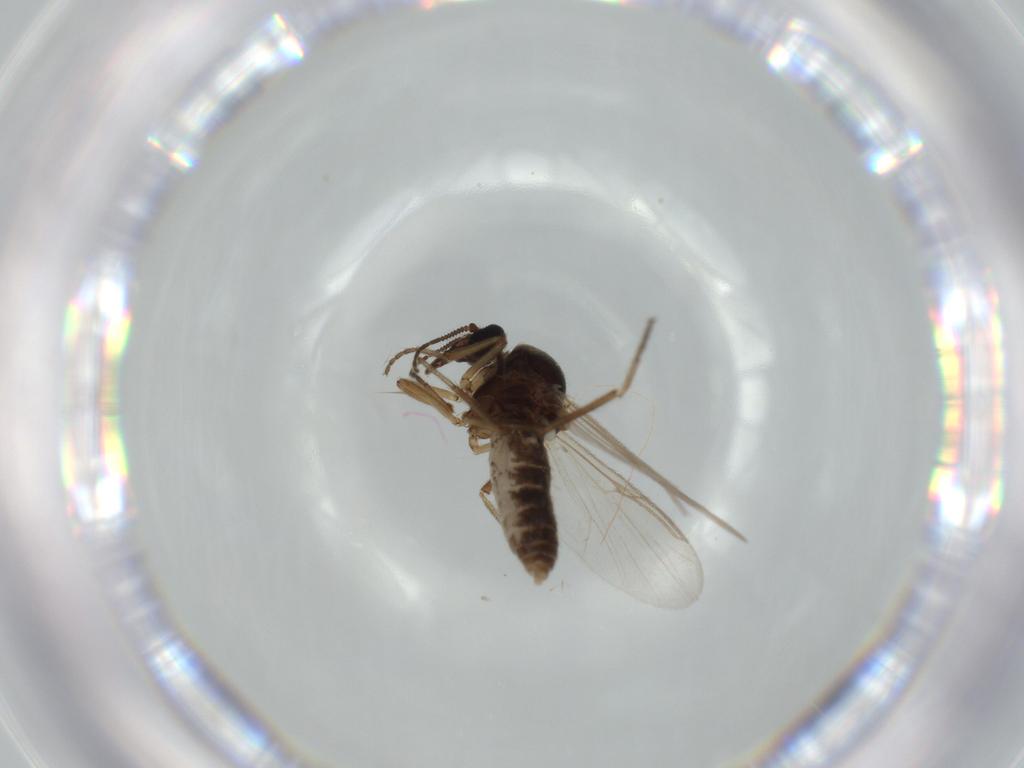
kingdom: Animalia
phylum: Arthropoda
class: Insecta
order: Diptera
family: Ceratopogonidae
